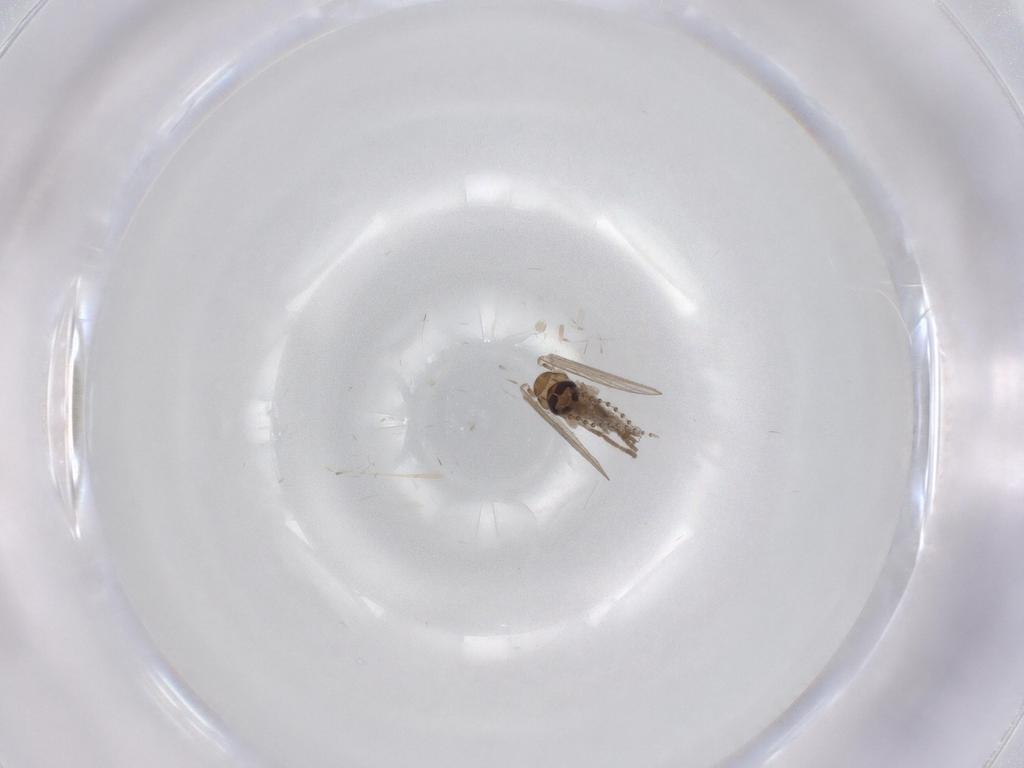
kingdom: Animalia
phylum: Arthropoda
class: Insecta
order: Diptera
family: Psychodidae
